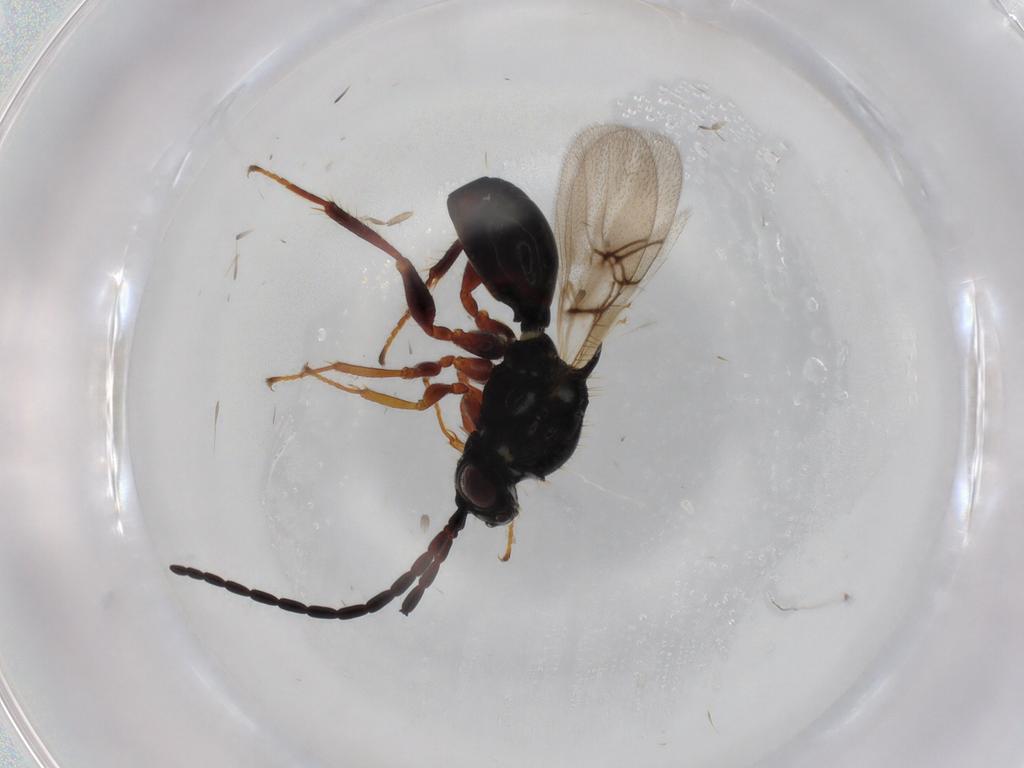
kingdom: Animalia
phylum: Arthropoda
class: Insecta
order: Hymenoptera
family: Figitidae
